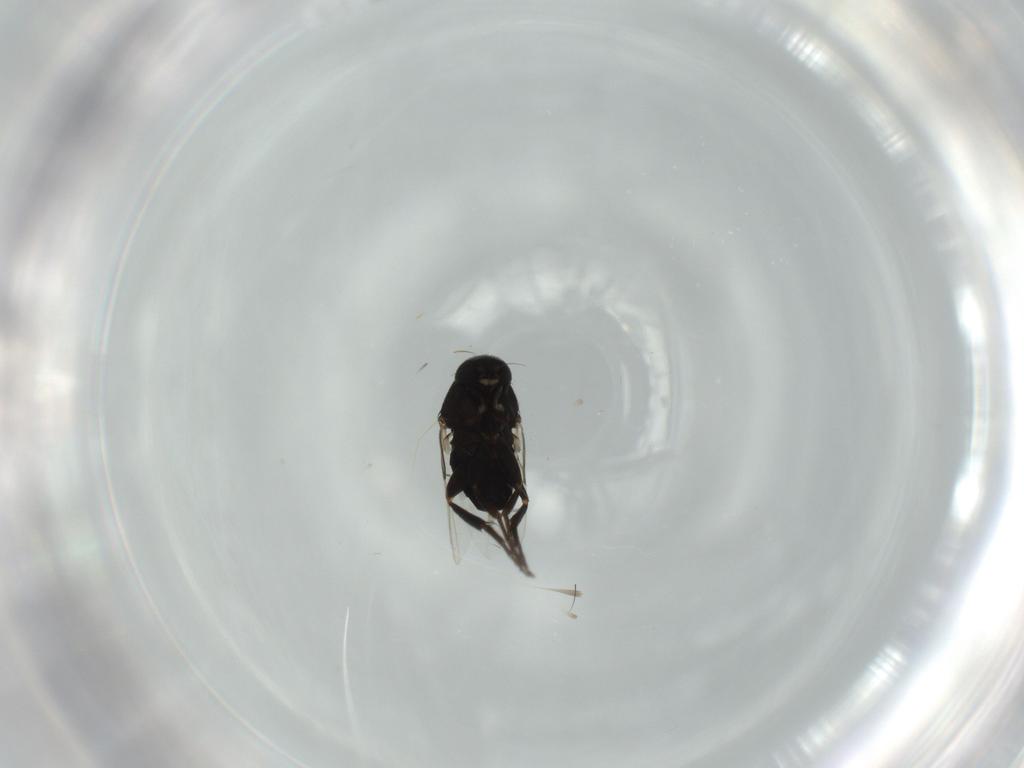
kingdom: Animalia
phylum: Arthropoda
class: Insecta
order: Diptera
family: Phoridae
